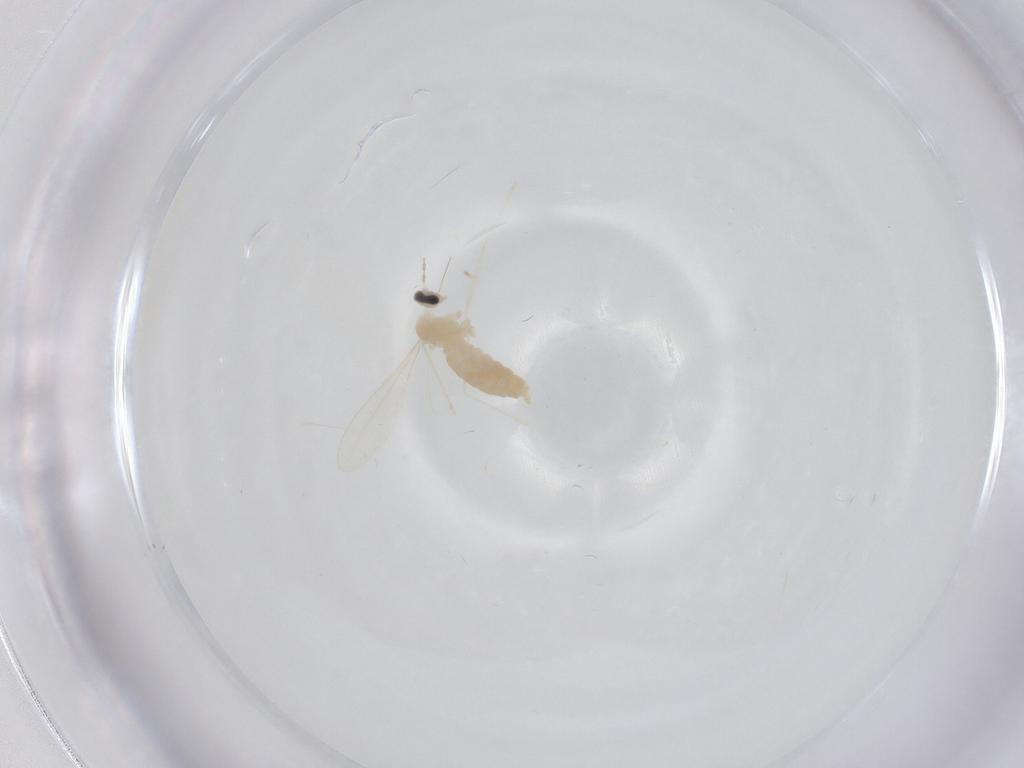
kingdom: Animalia
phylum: Arthropoda
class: Insecta
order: Diptera
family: Cecidomyiidae
